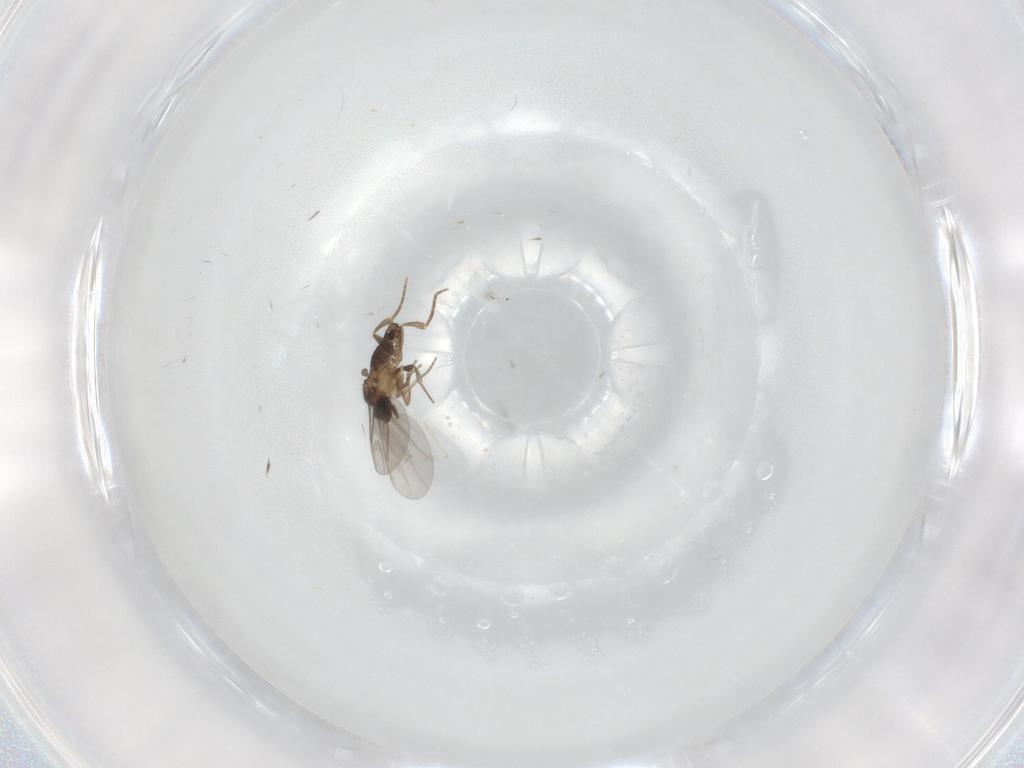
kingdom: Animalia
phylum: Arthropoda
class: Insecta
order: Diptera
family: Cecidomyiidae
